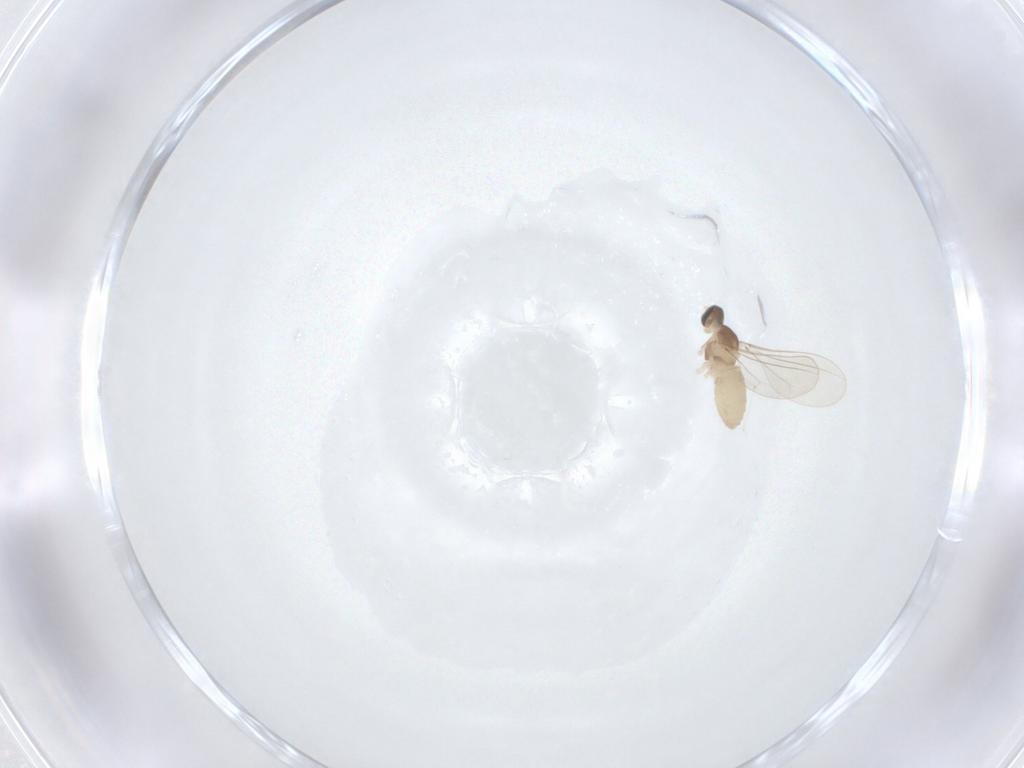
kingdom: Animalia
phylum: Arthropoda
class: Insecta
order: Diptera
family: Cecidomyiidae
